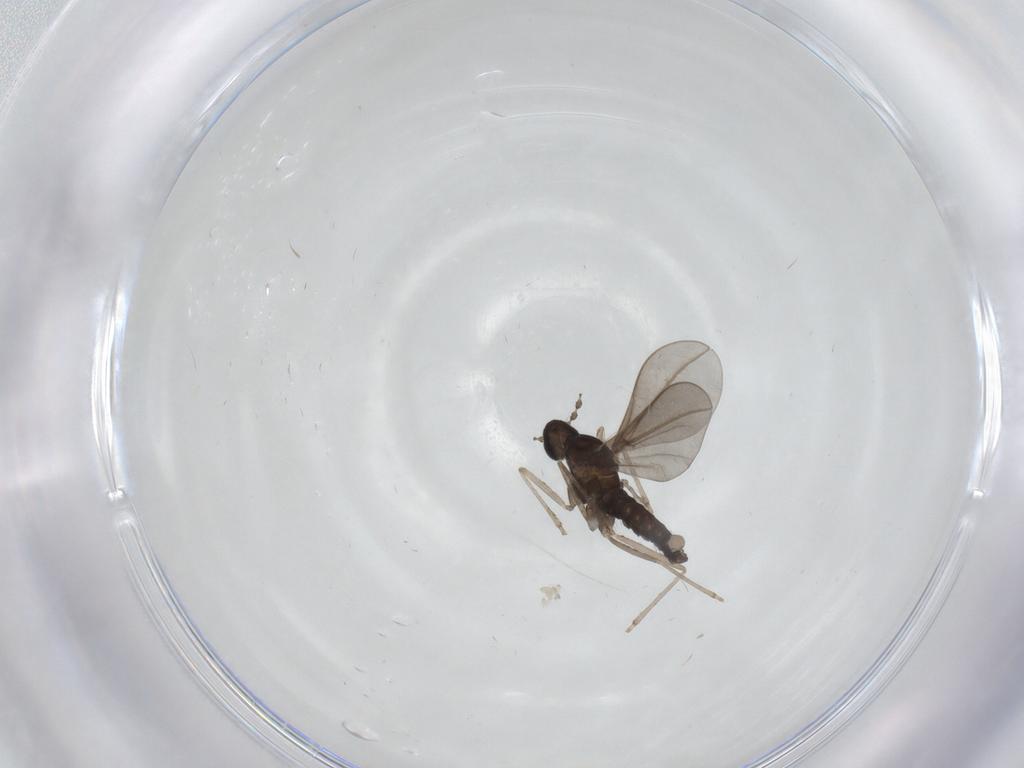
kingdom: Animalia
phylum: Arthropoda
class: Insecta
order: Diptera
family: Ceratopogonidae
